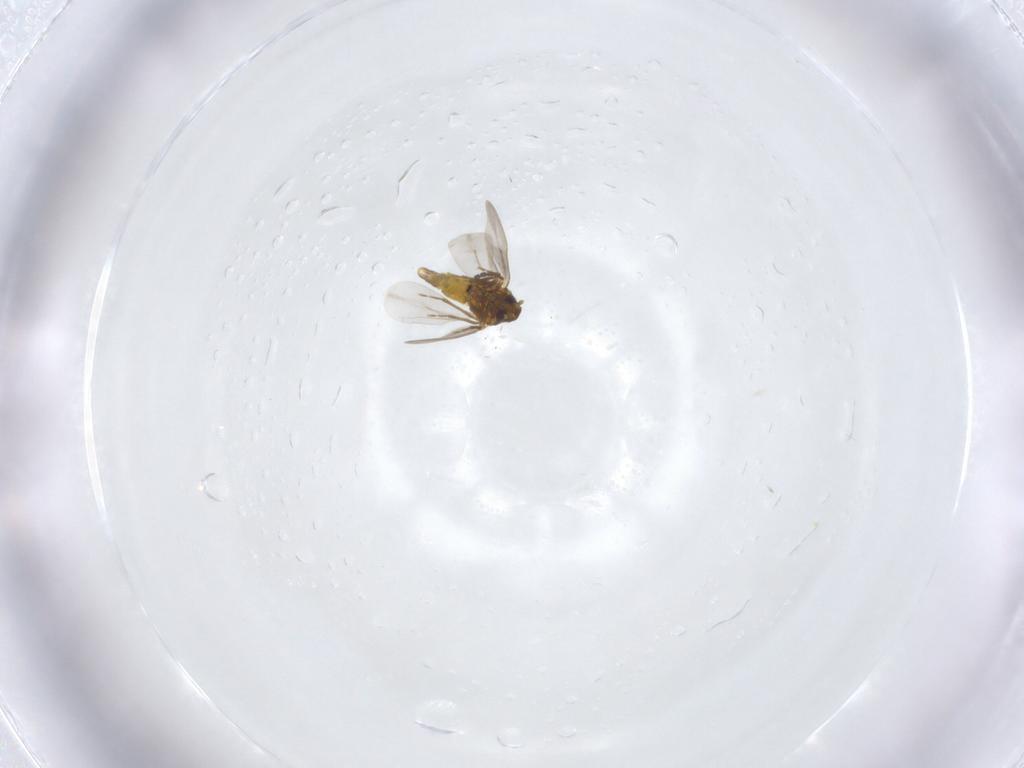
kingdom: Animalia
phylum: Arthropoda
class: Insecta
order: Hemiptera
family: Aleyrodidae
